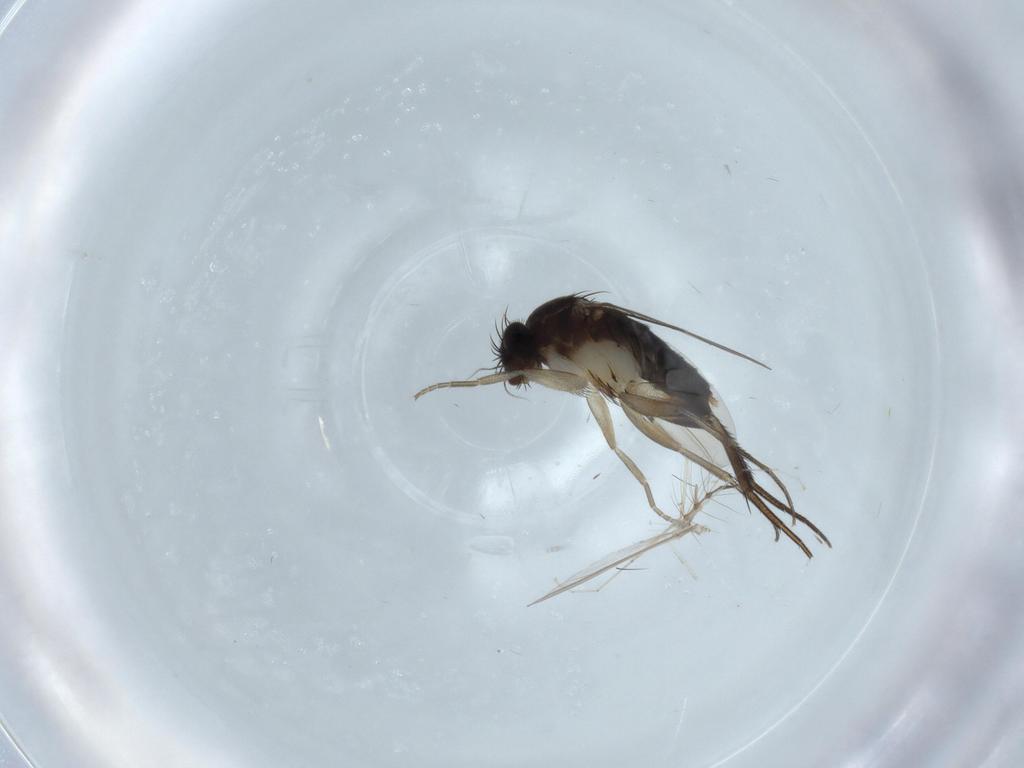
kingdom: Animalia
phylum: Arthropoda
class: Insecta
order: Diptera
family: Phoridae
